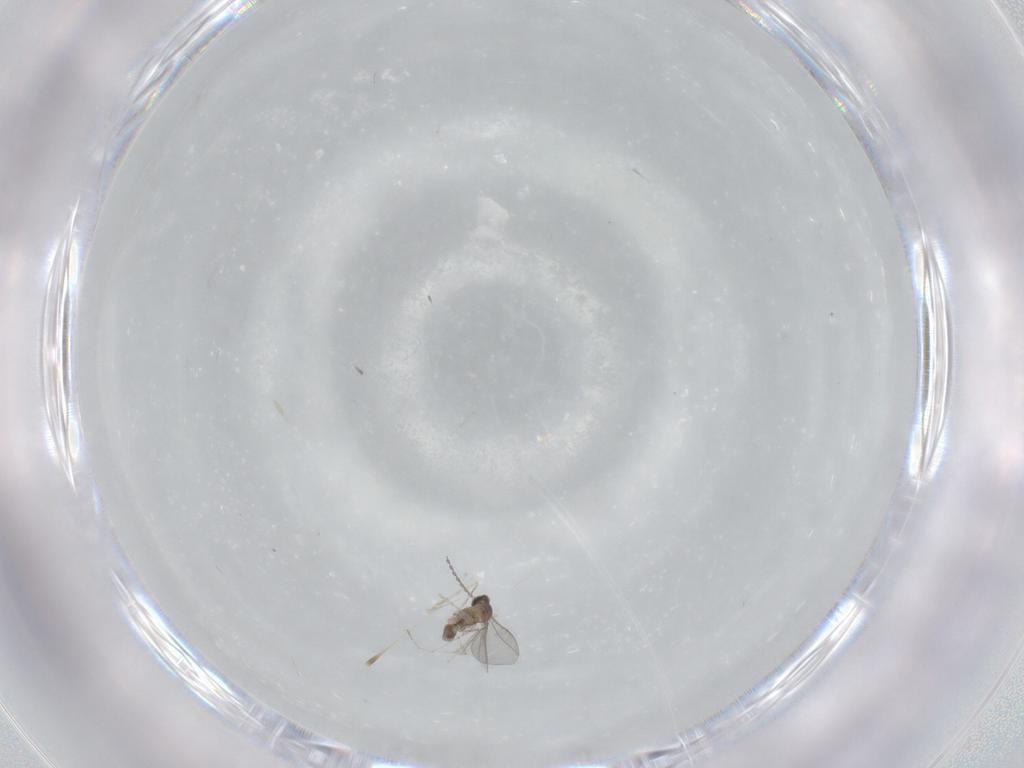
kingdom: Animalia
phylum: Arthropoda
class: Insecta
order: Diptera
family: Cecidomyiidae
